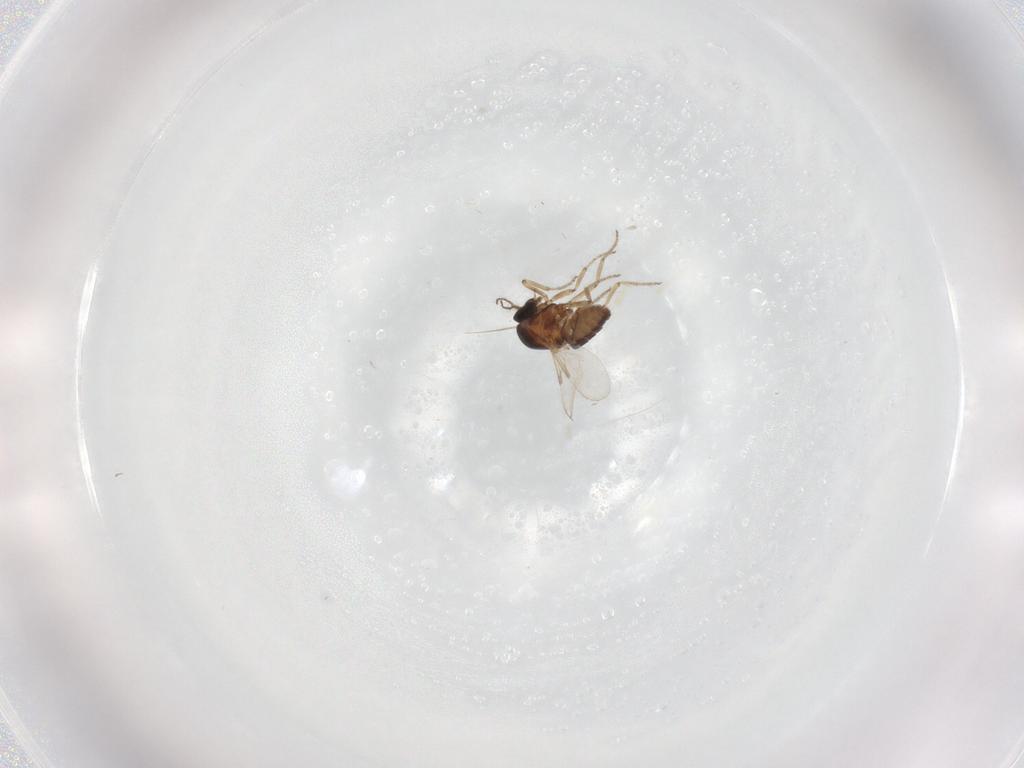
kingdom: Animalia
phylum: Arthropoda
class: Insecta
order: Diptera
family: Ceratopogonidae
